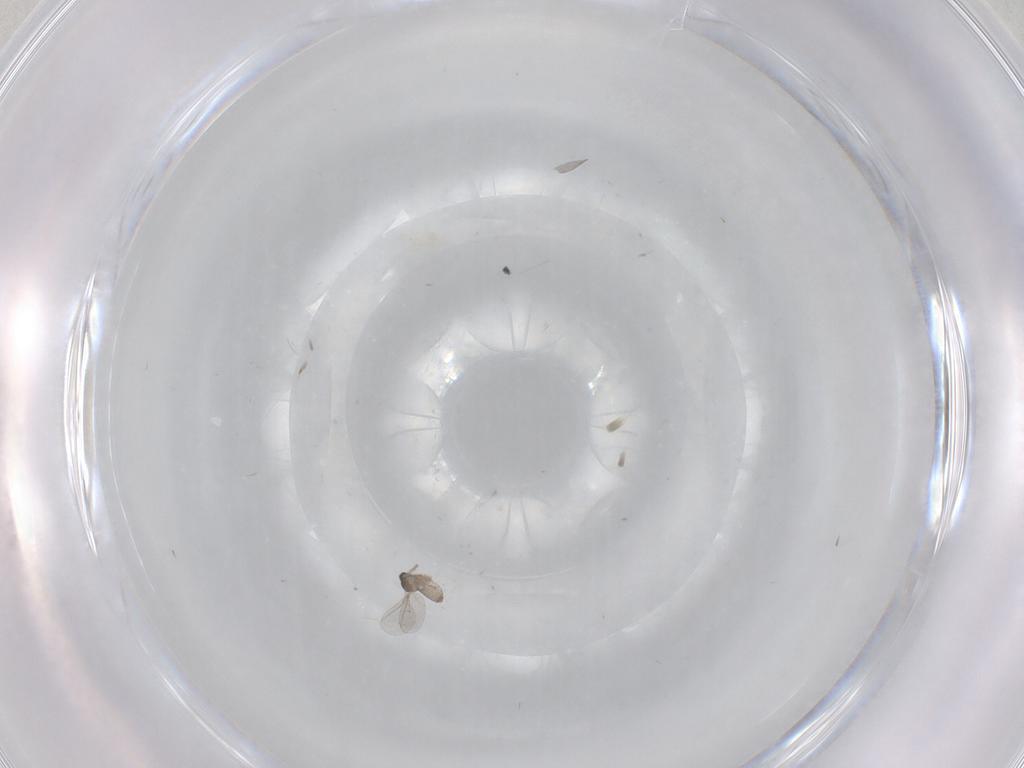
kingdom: Animalia
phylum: Arthropoda
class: Insecta
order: Diptera
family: Cecidomyiidae
